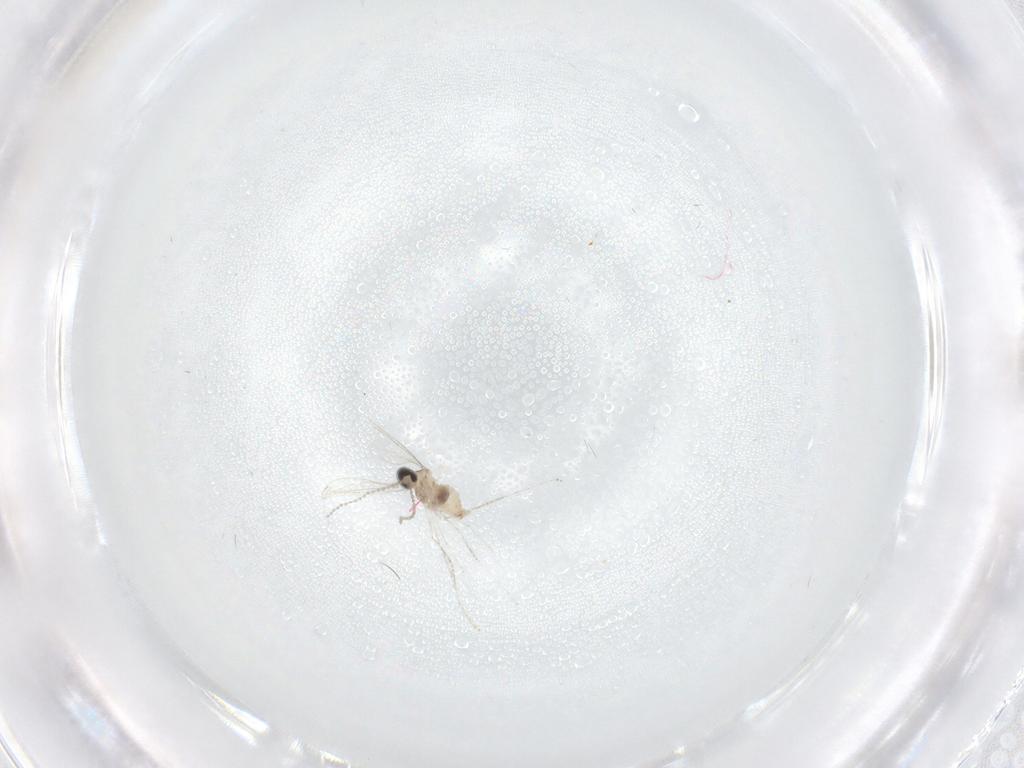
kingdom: Animalia
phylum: Arthropoda
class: Insecta
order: Diptera
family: Cecidomyiidae
